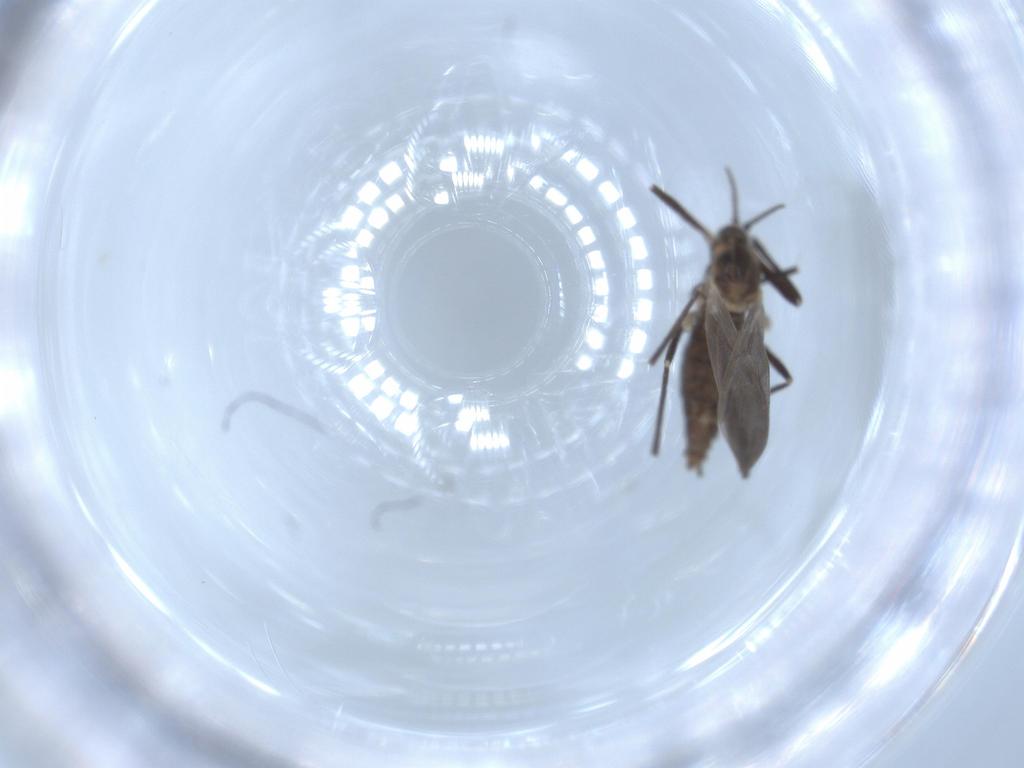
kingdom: Animalia
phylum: Arthropoda
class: Insecta
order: Diptera
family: Cecidomyiidae
